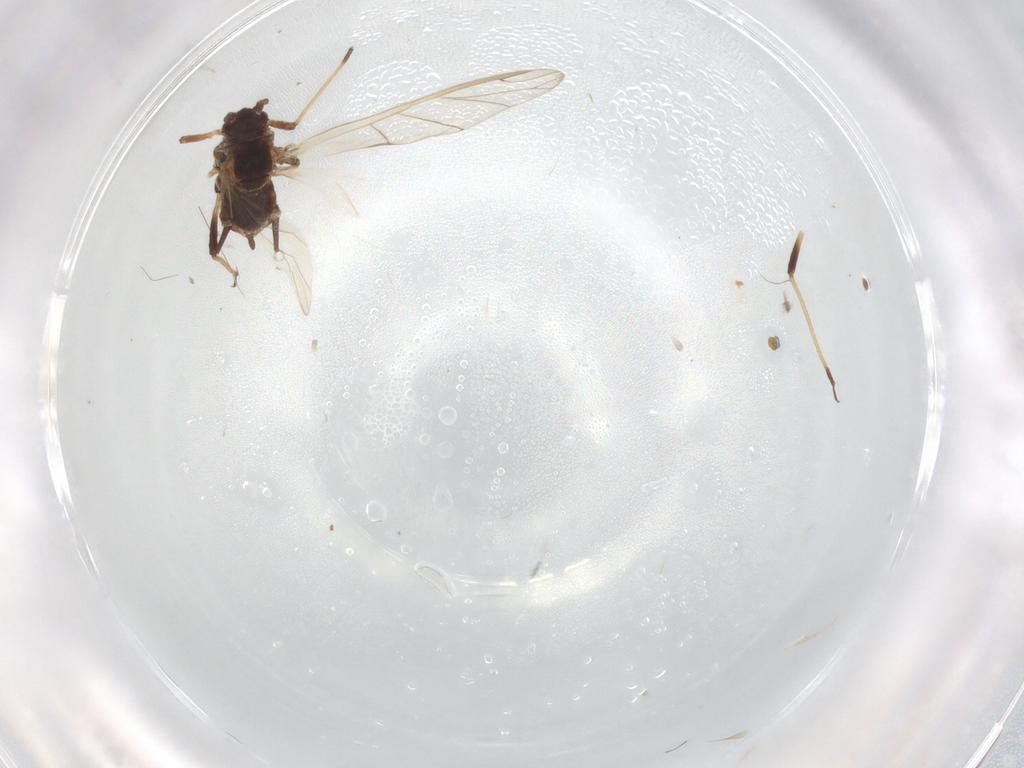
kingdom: Animalia
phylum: Arthropoda
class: Insecta
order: Hemiptera
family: Aphididae
